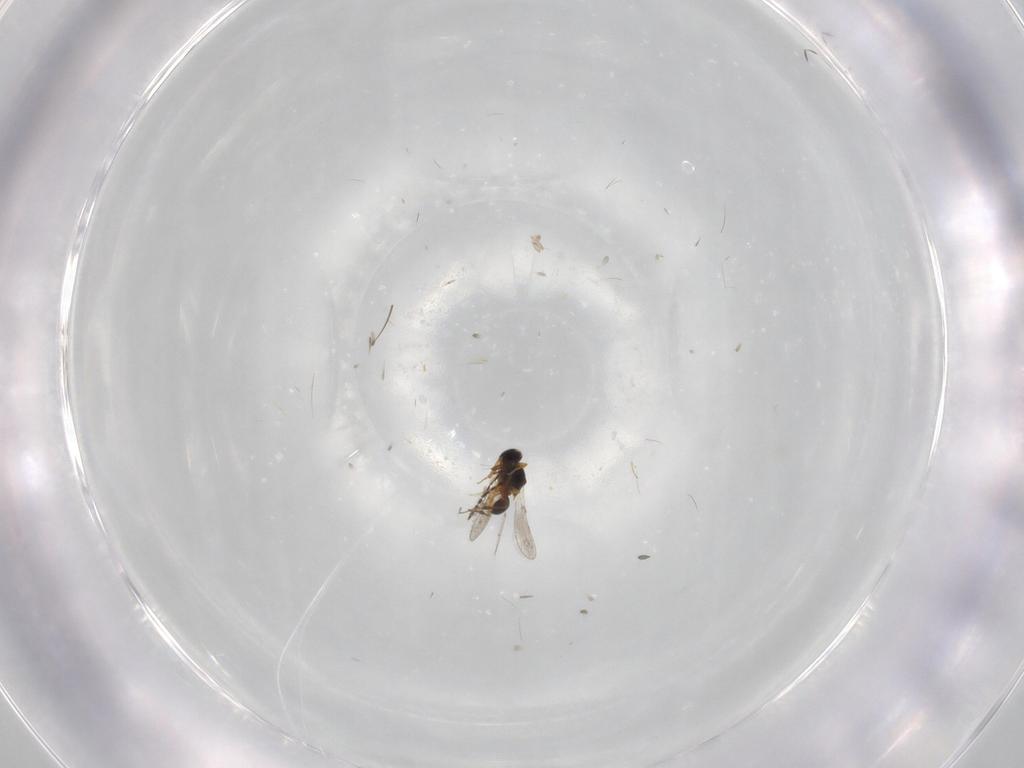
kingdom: Animalia
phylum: Arthropoda
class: Insecta
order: Hymenoptera
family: Platygastridae
